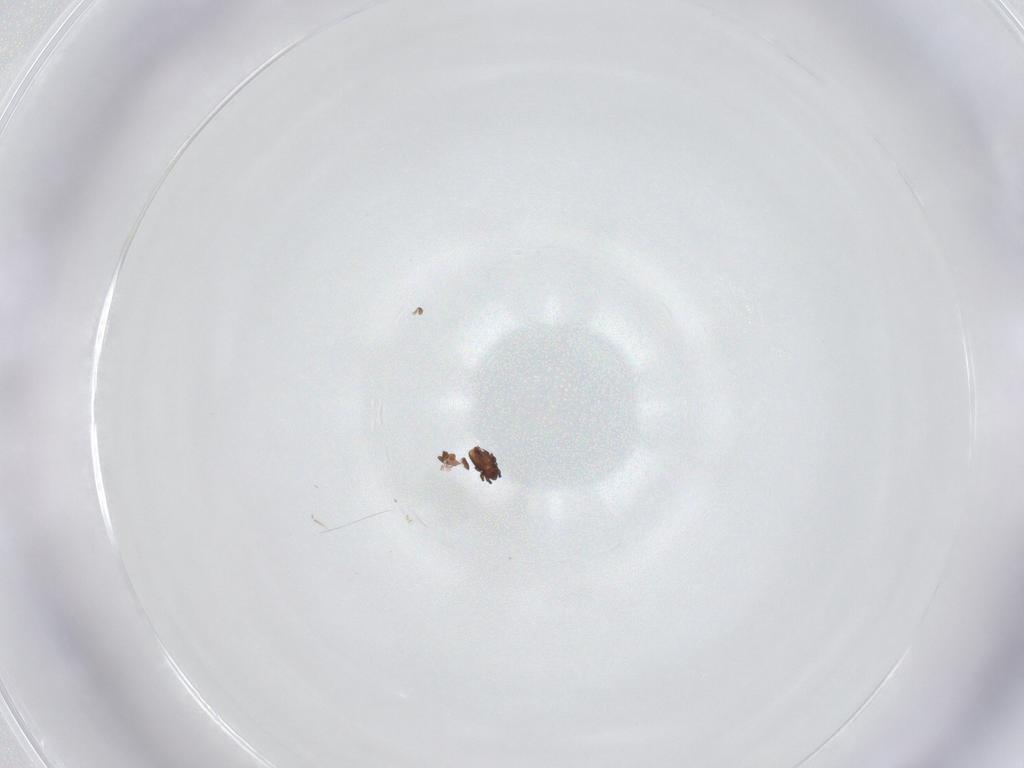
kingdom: Animalia
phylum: Arthropoda
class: Arachnida
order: Sarcoptiformes
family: Cymbaeremaeidae
